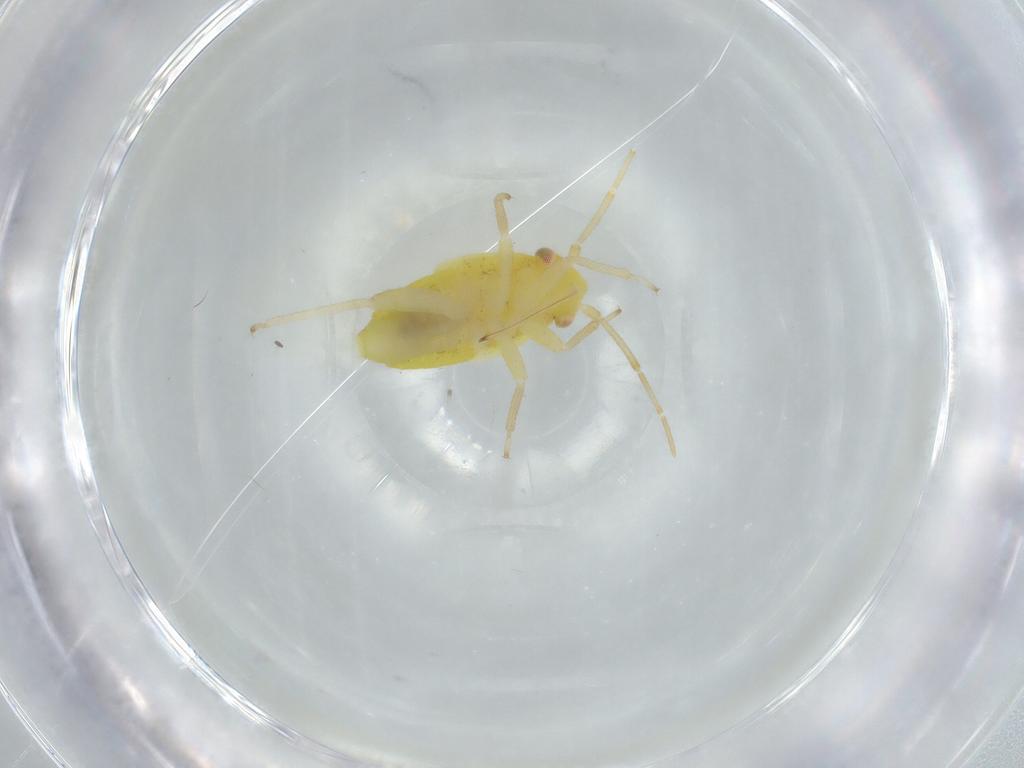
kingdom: Animalia
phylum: Arthropoda
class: Insecta
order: Hemiptera
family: Miridae
